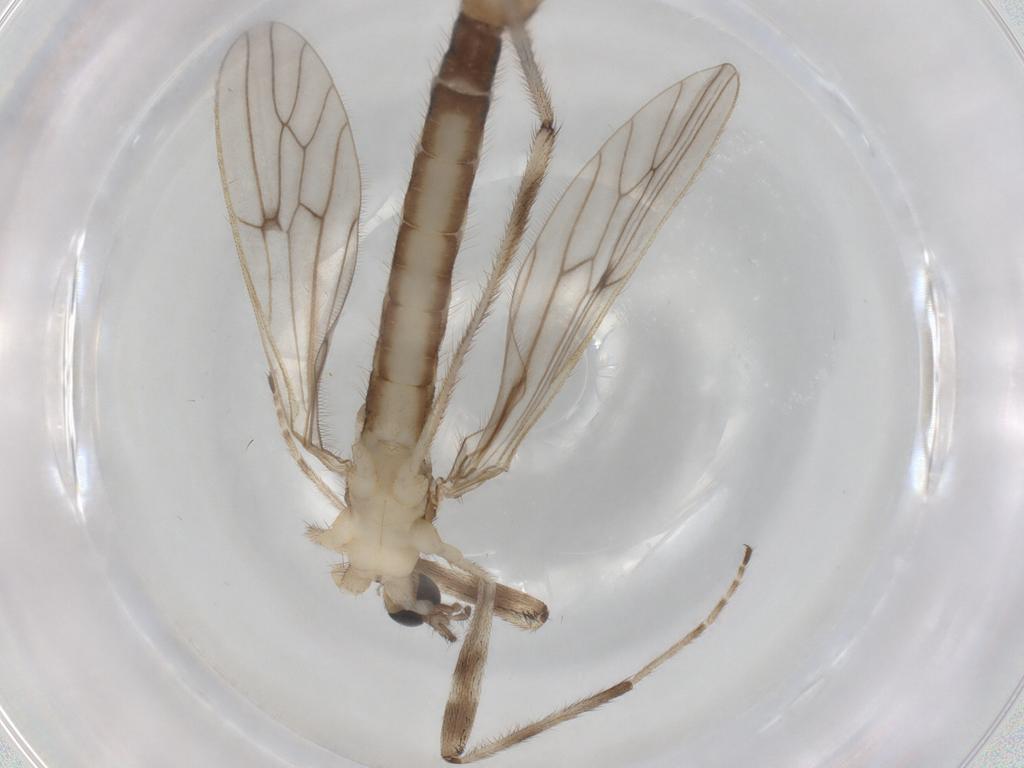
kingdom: Animalia
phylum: Arthropoda
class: Insecta
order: Diptera
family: Limoniidae
